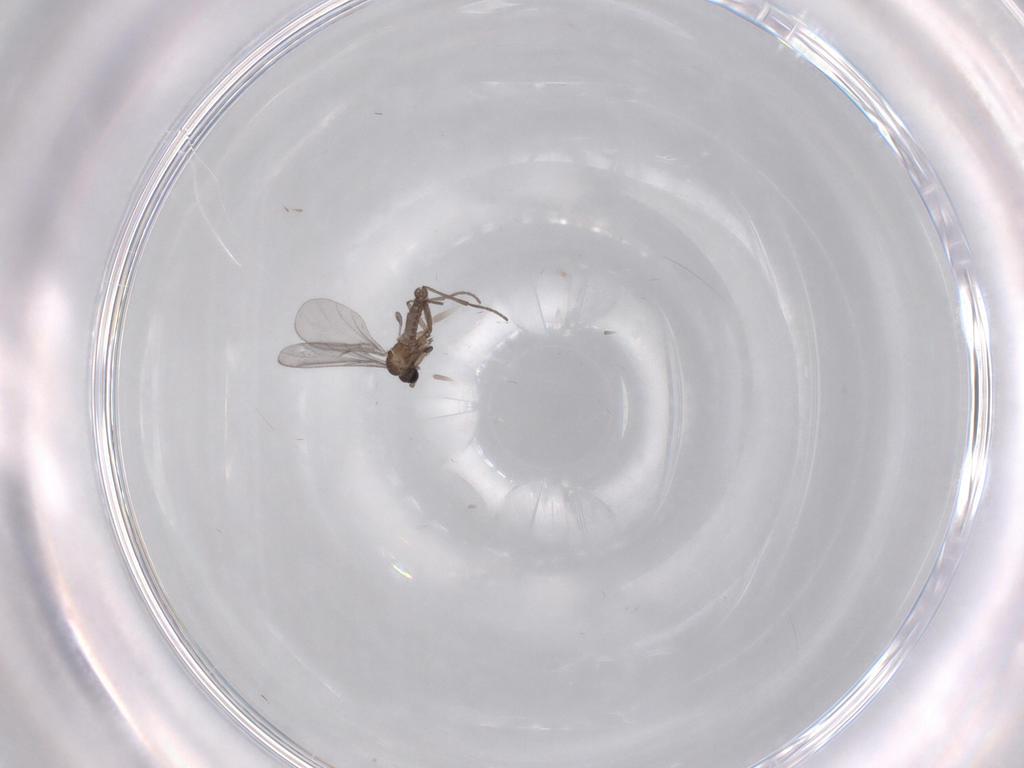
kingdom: Animalia
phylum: Arthropoda
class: Insecta
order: Diptera
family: Sciaridae
